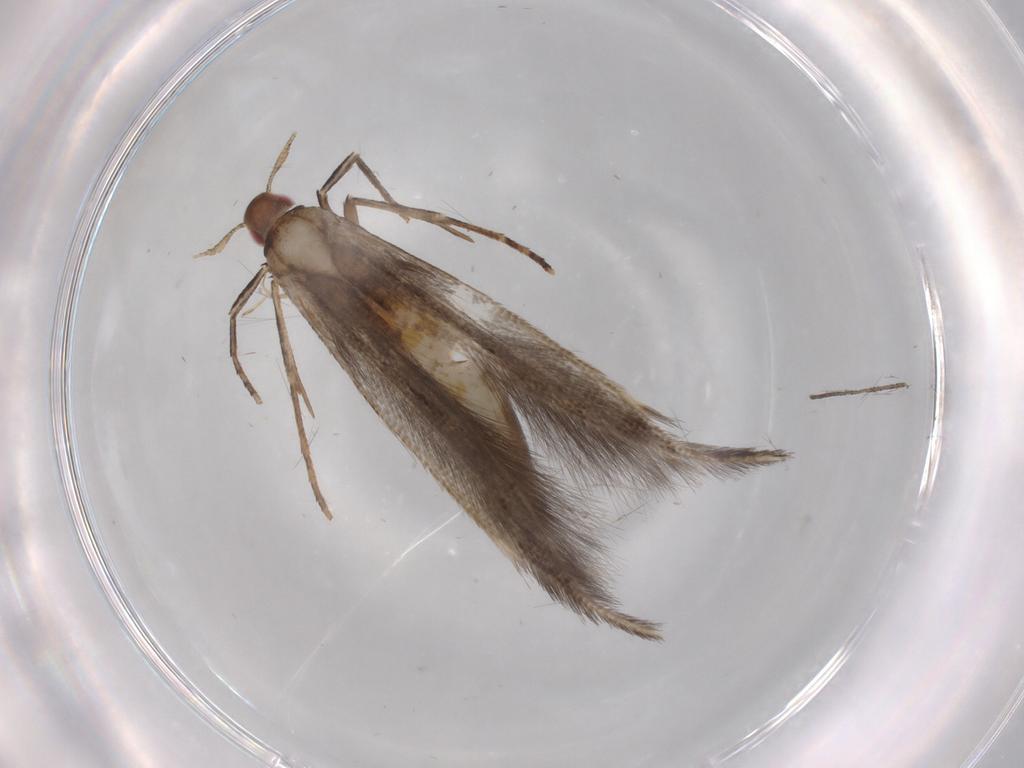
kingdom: Animalia
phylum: Arthropoda
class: Insecta
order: Lepidoptera
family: Cosmopterigidae
